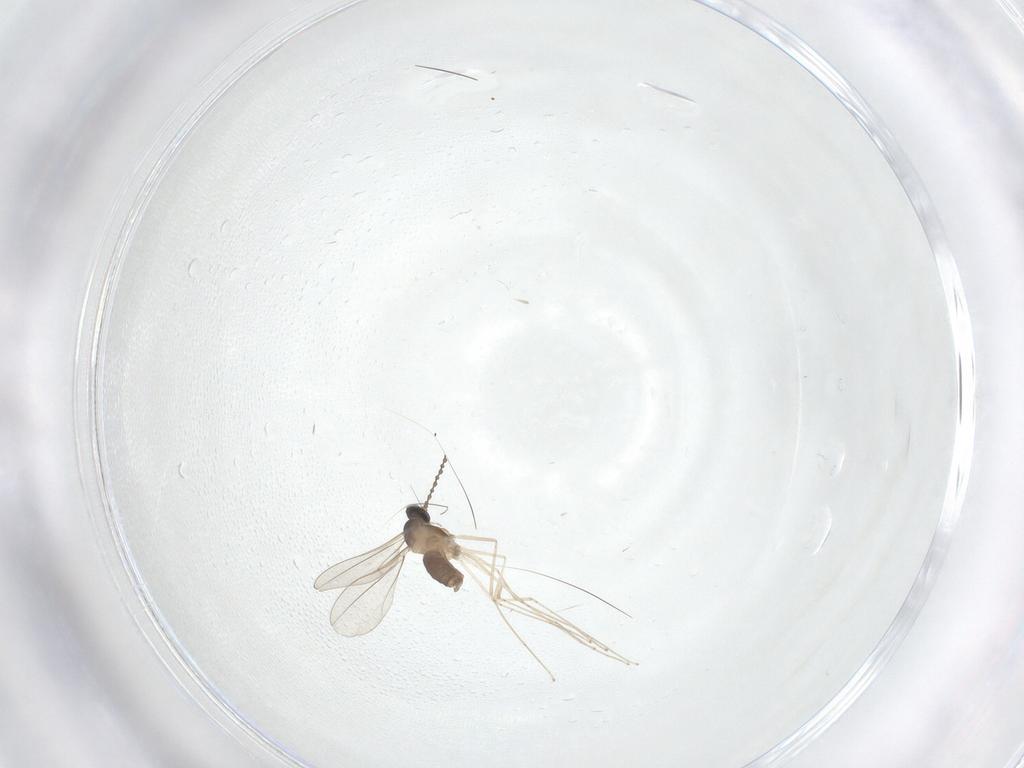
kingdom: Animalia
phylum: Arthropoda
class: Insecta
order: Diptera
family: Cecidomyiidae
